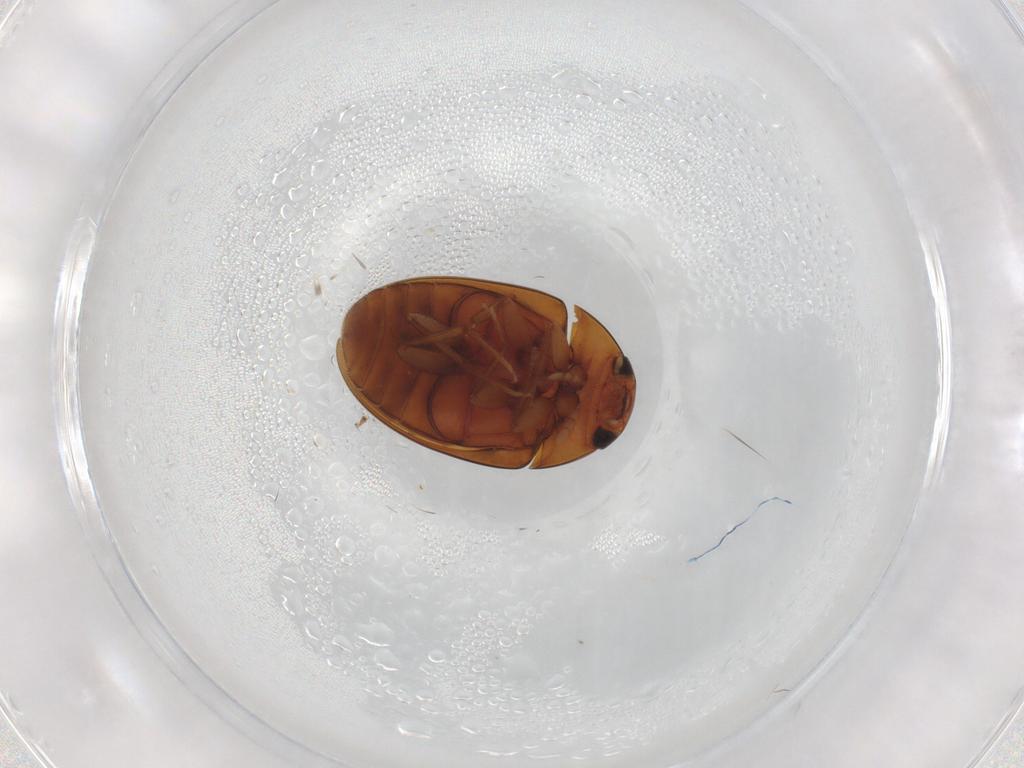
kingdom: Animalia
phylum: Arthropoda
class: Insecta
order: Coleoptera
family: Phalacridae
